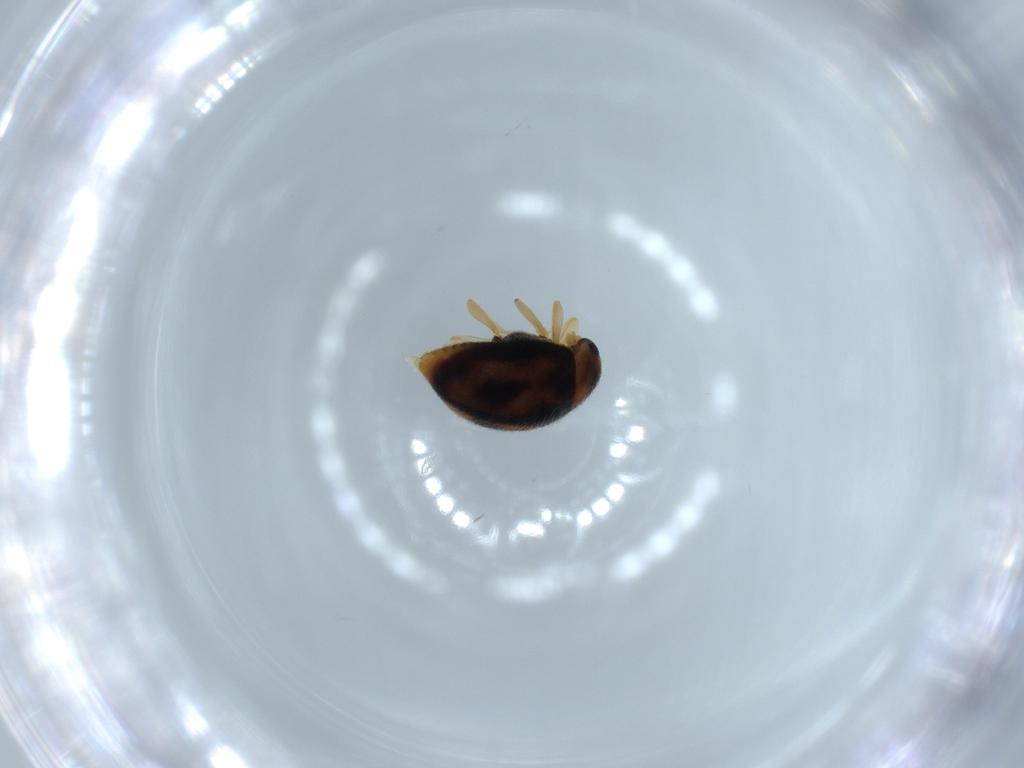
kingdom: Animalia
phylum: Arthropoda
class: Insecta
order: Coleoptera
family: Coccinellidae
